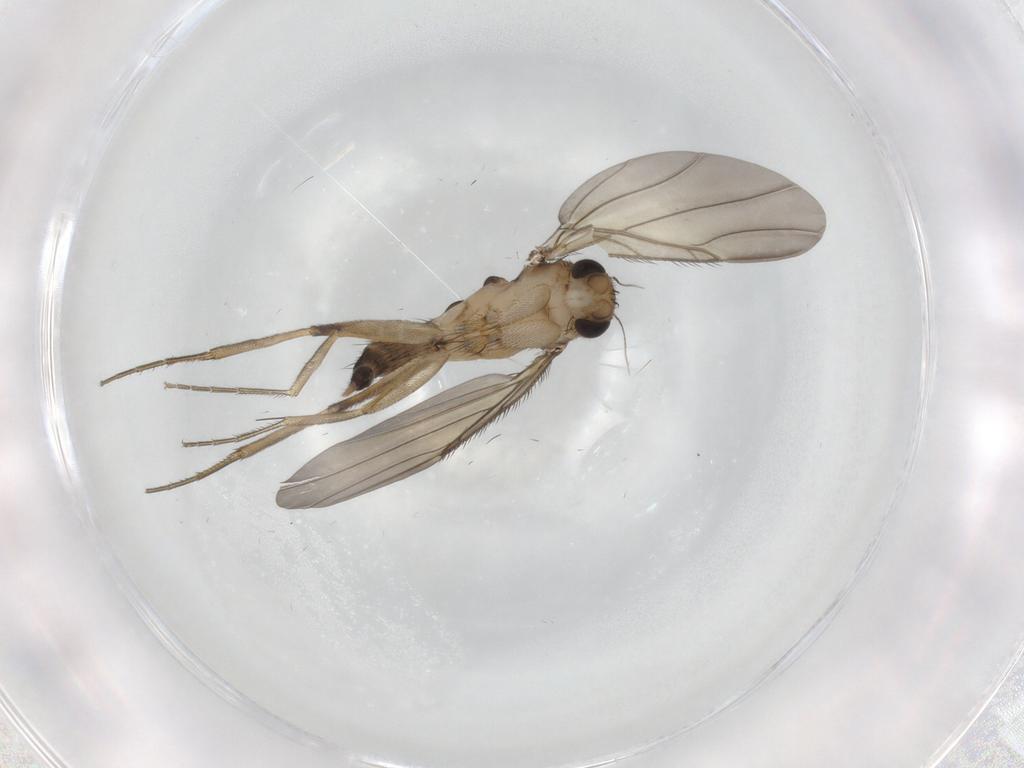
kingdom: Animalia
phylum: Arthropoda
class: Insecta
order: Diptera
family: Phoridae
